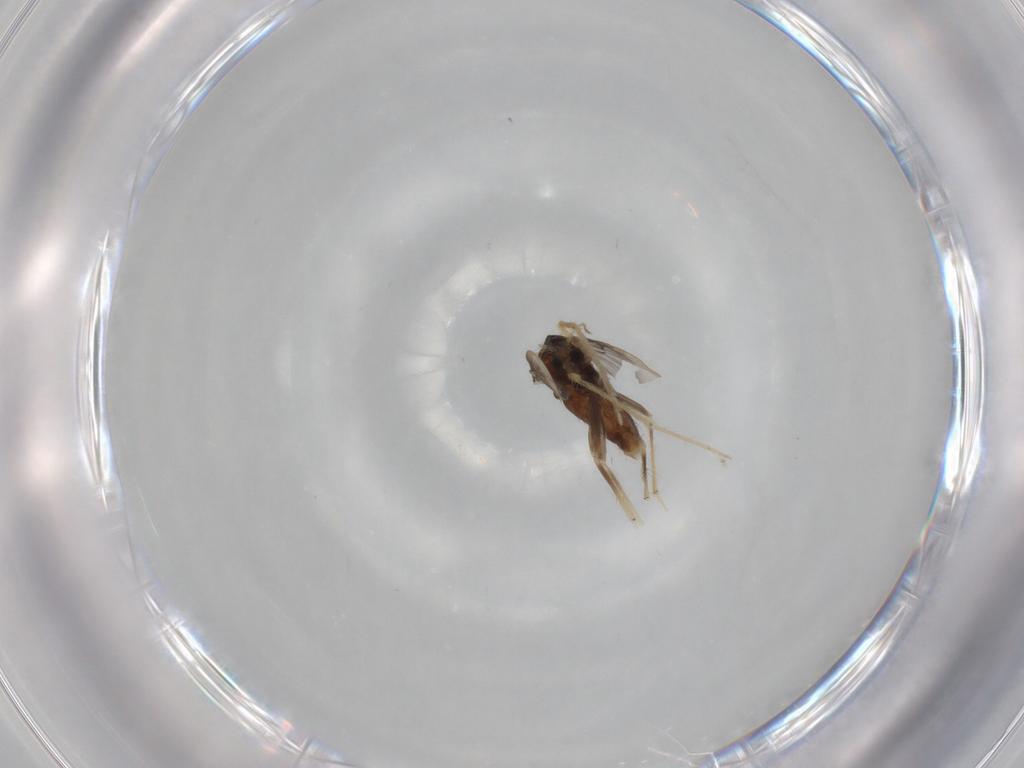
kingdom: Animalia
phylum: Arthropoda
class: Insecta
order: Diptera
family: Chironomidae
